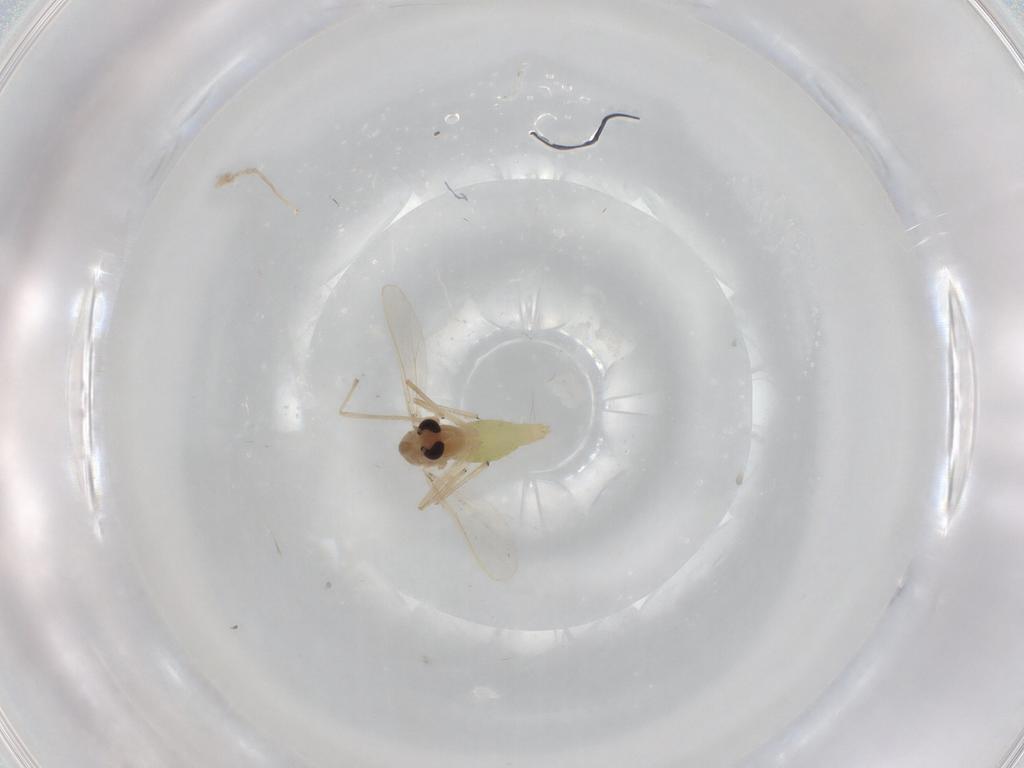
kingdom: Animalia
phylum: Arthropoda
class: Insecta
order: Diptera
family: Chironomidae
